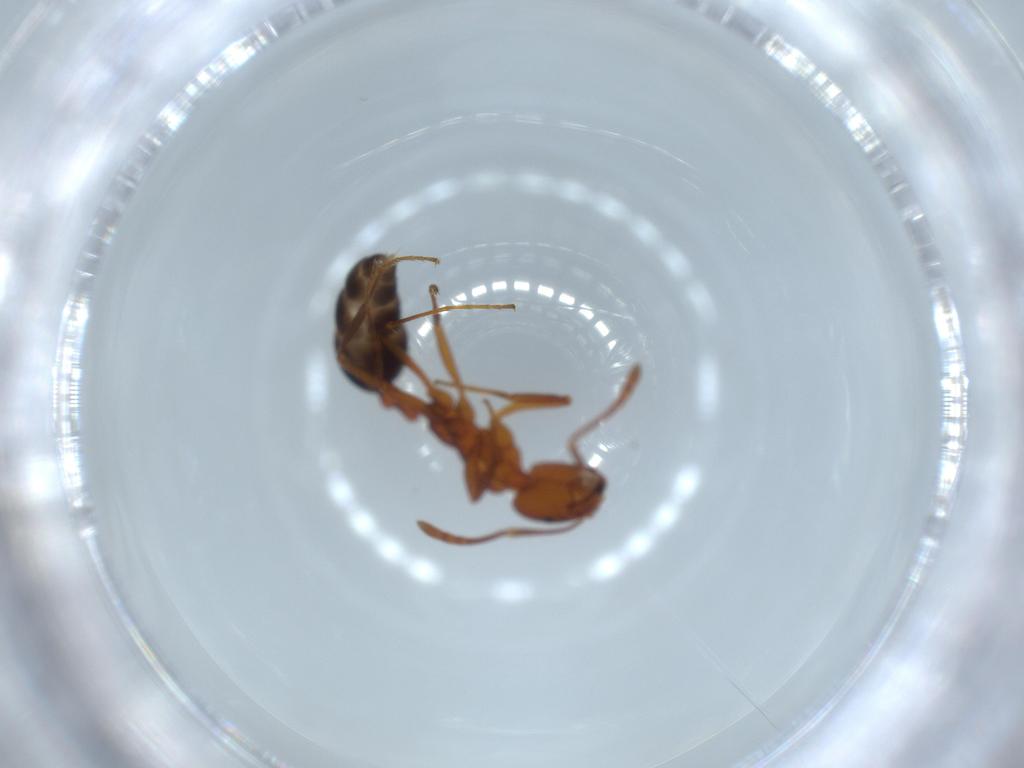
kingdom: Animalia
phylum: Arthropoda
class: Insecta
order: Hymenoptera
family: Formicidae
